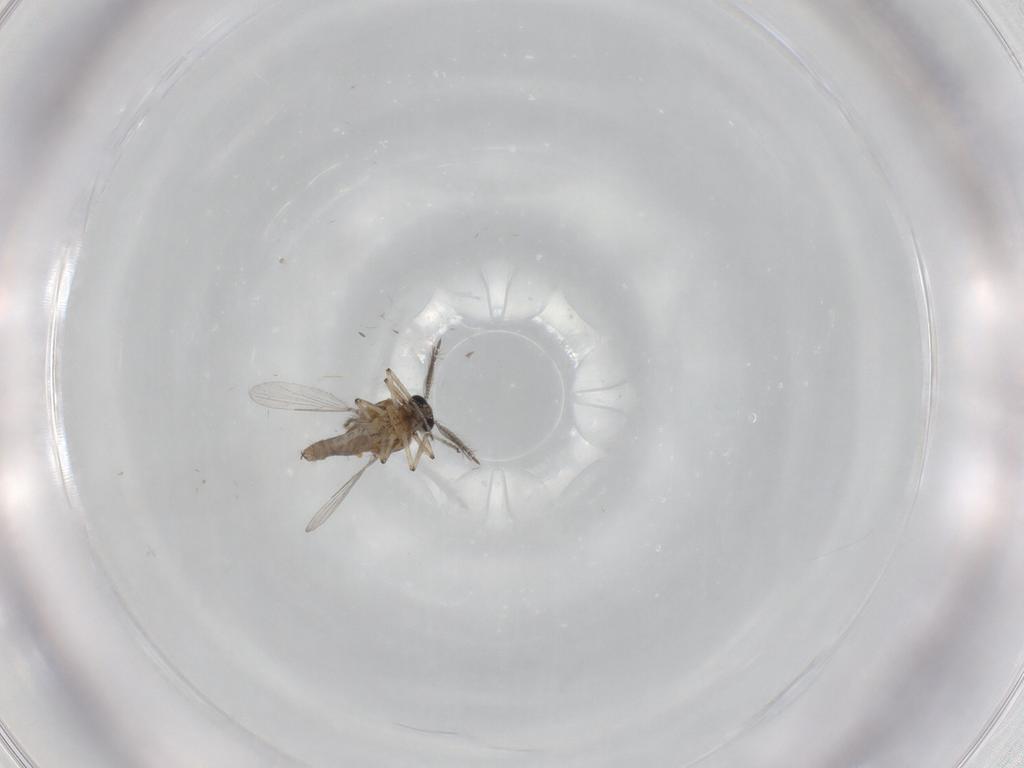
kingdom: Animalia
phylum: Arthropoda
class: Insecta
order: Diptera
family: Ceratopogonidae
